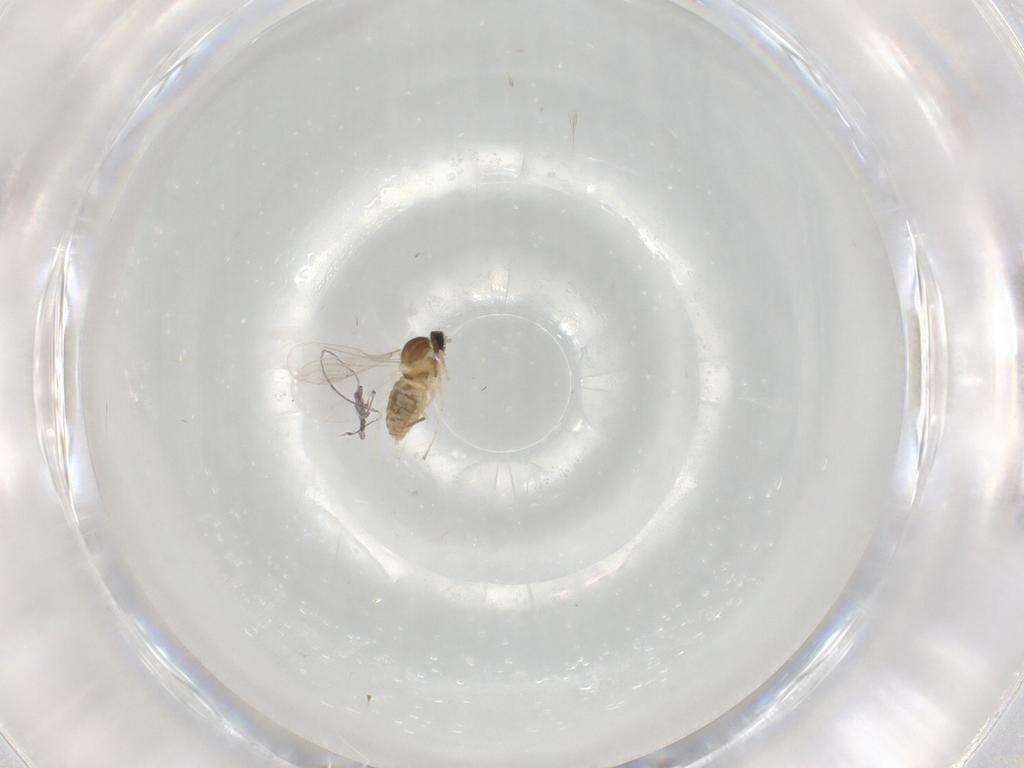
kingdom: Animalia
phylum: Arthropoda
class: Insecta
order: Diptera
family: Cecidomyiidae
